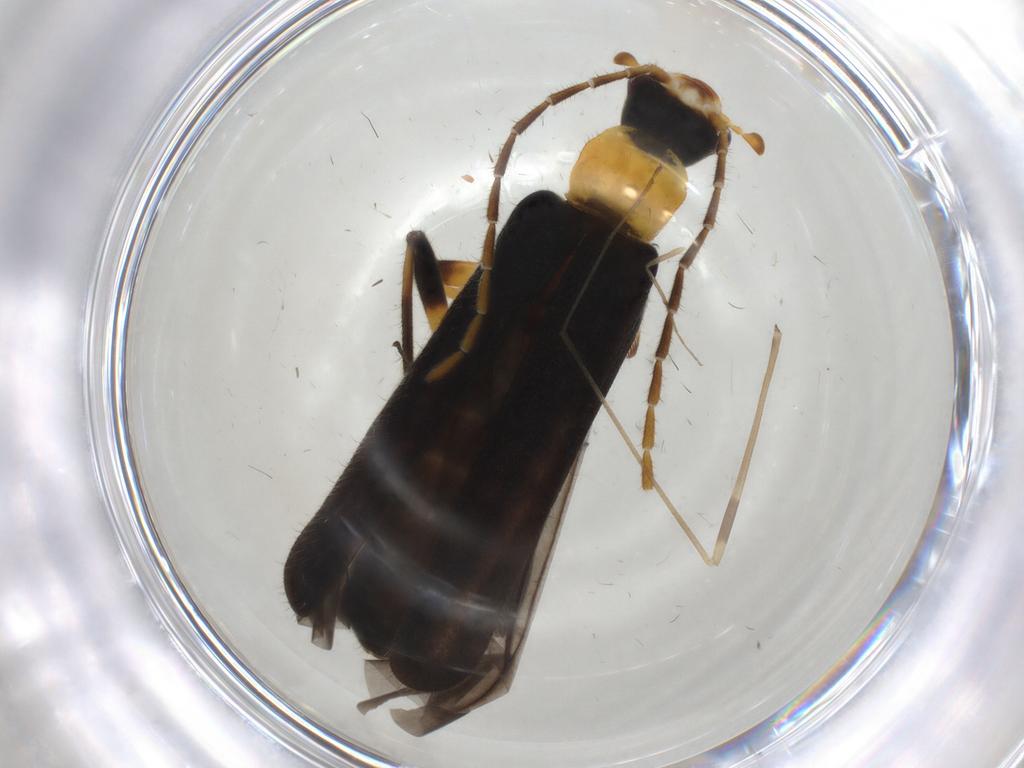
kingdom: Animalia
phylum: Arthropoda
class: Insecta
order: Coleoptera
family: Cantharidae
